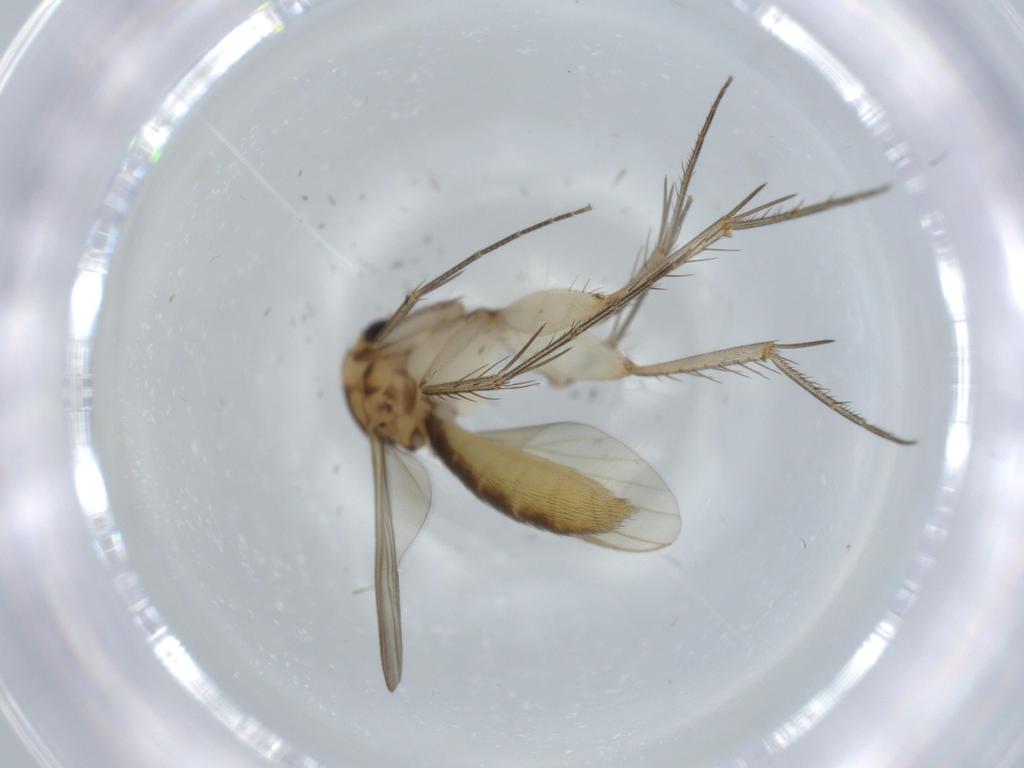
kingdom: Animalia
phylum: Arthropoda
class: Insecta
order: Diptera
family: Mycetophilidae
